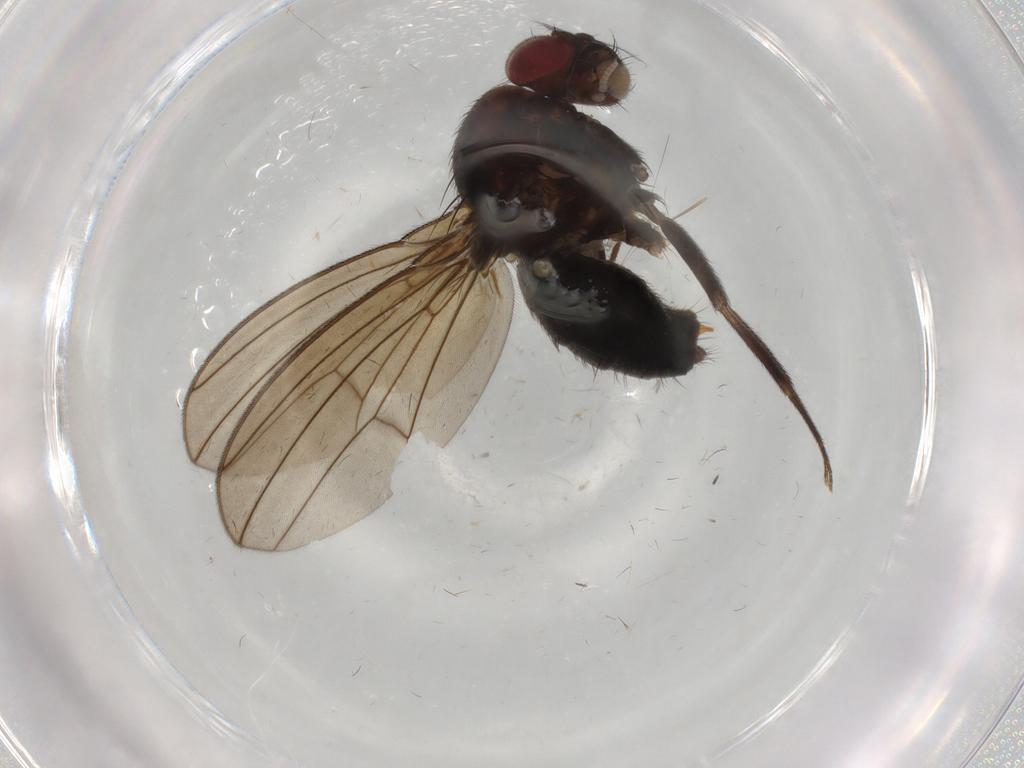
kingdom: Animalia
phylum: Arthropoda
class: Insecta
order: Diptera
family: Drosophilidae
